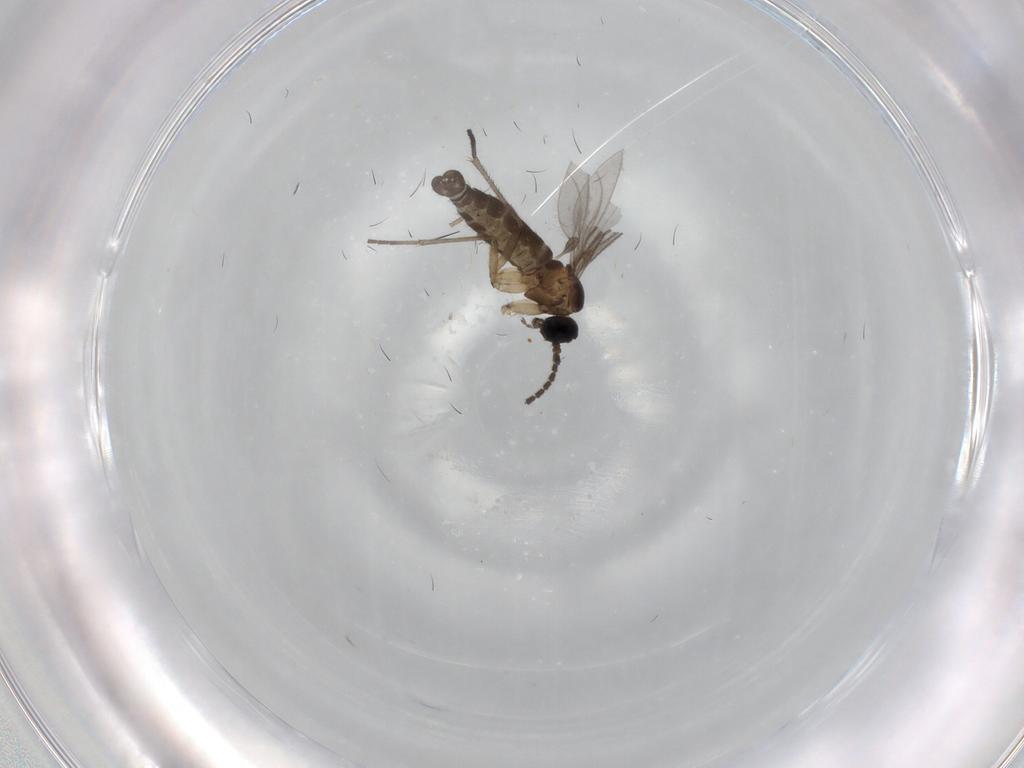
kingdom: Animalia
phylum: Arthropoda
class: Insecta
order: Diptera
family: Sciaridae
